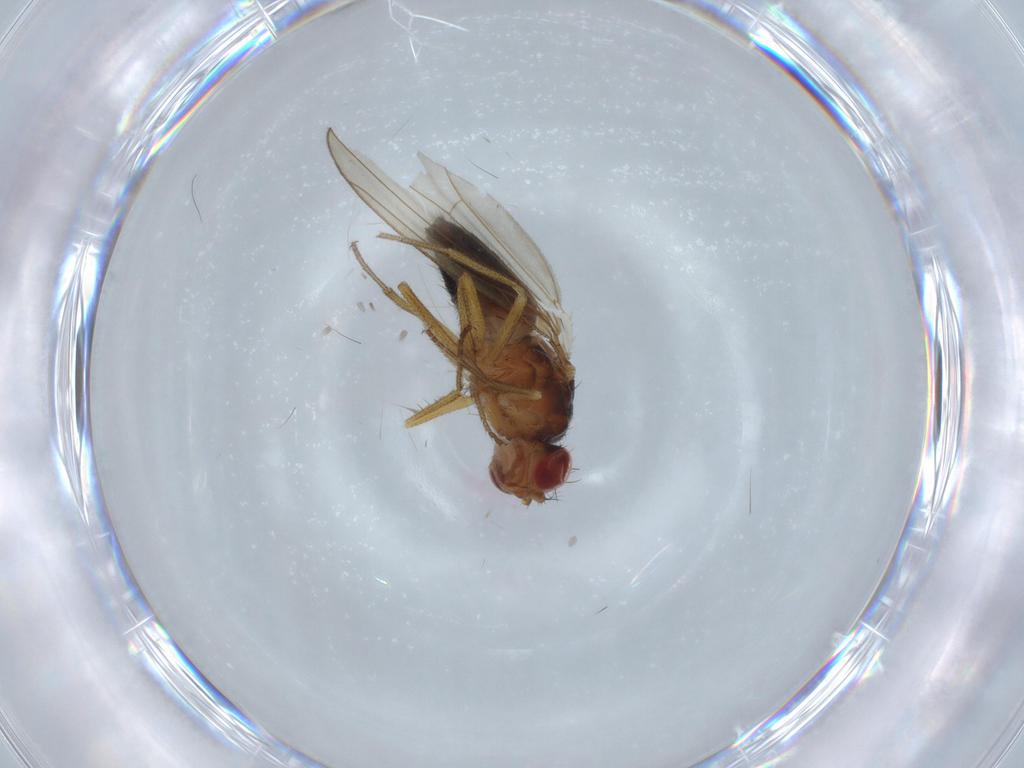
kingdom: Animalia
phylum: Arthropoda
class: Insecta
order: Diptera
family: Drosophilidae
